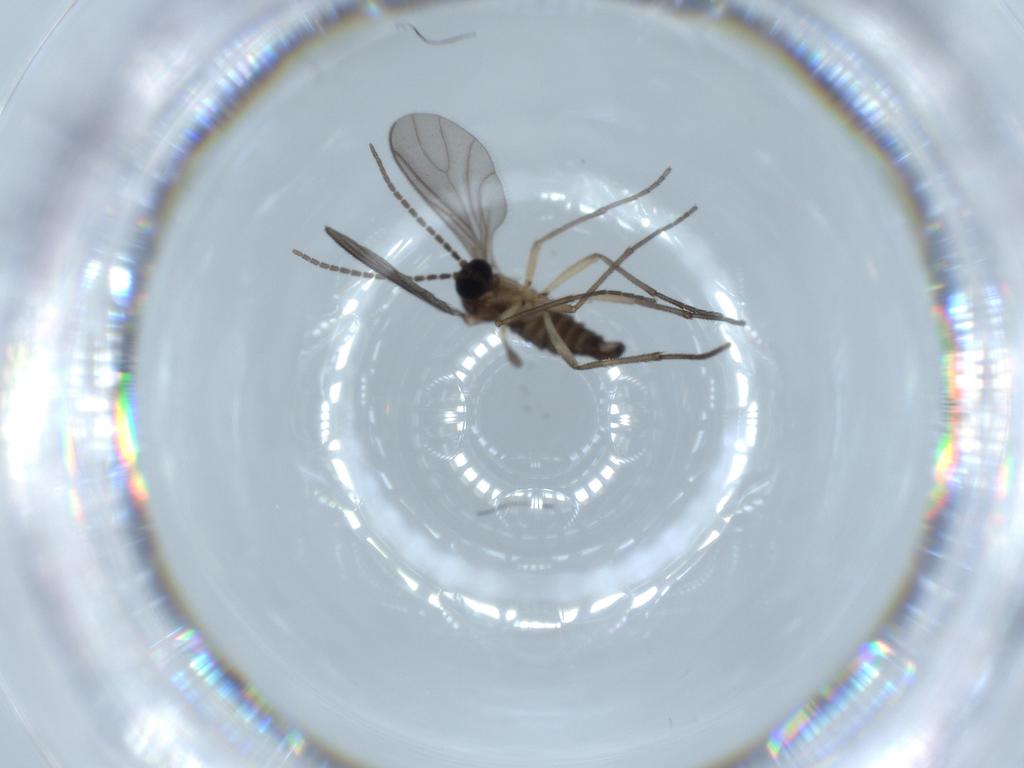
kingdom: Animalia
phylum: Arthropoda
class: Insecta
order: Diptera
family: Sciaridae
